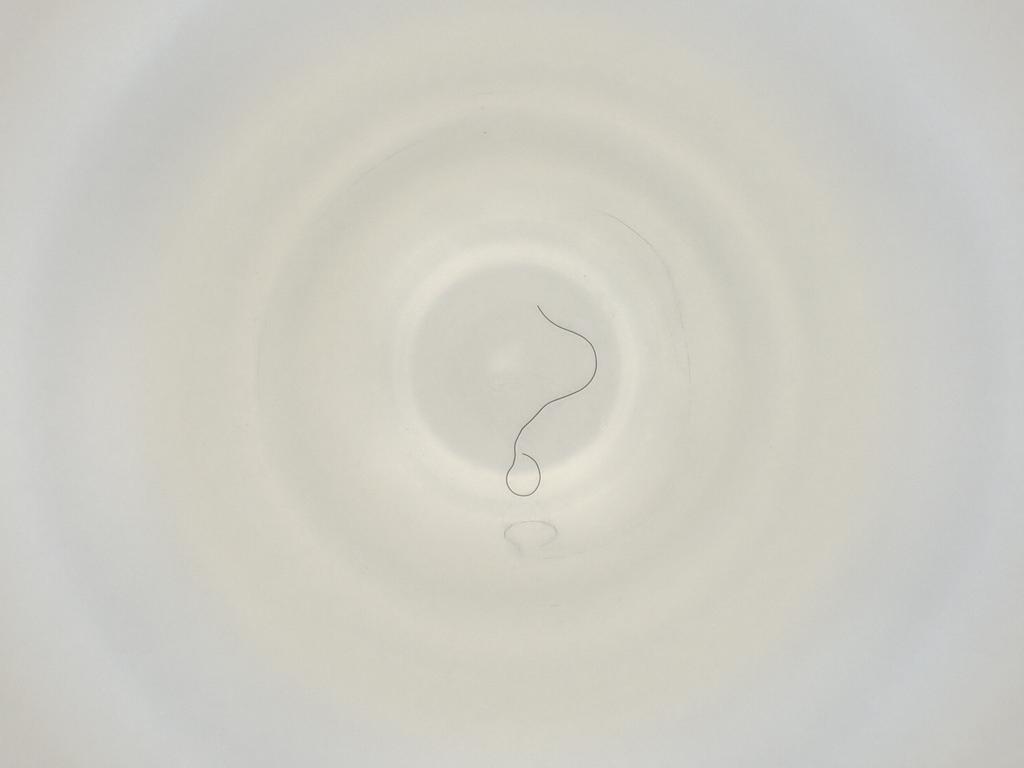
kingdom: Animalia
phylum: Arthropoda
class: Insecta
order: Diptera
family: Cecidomyiidae
